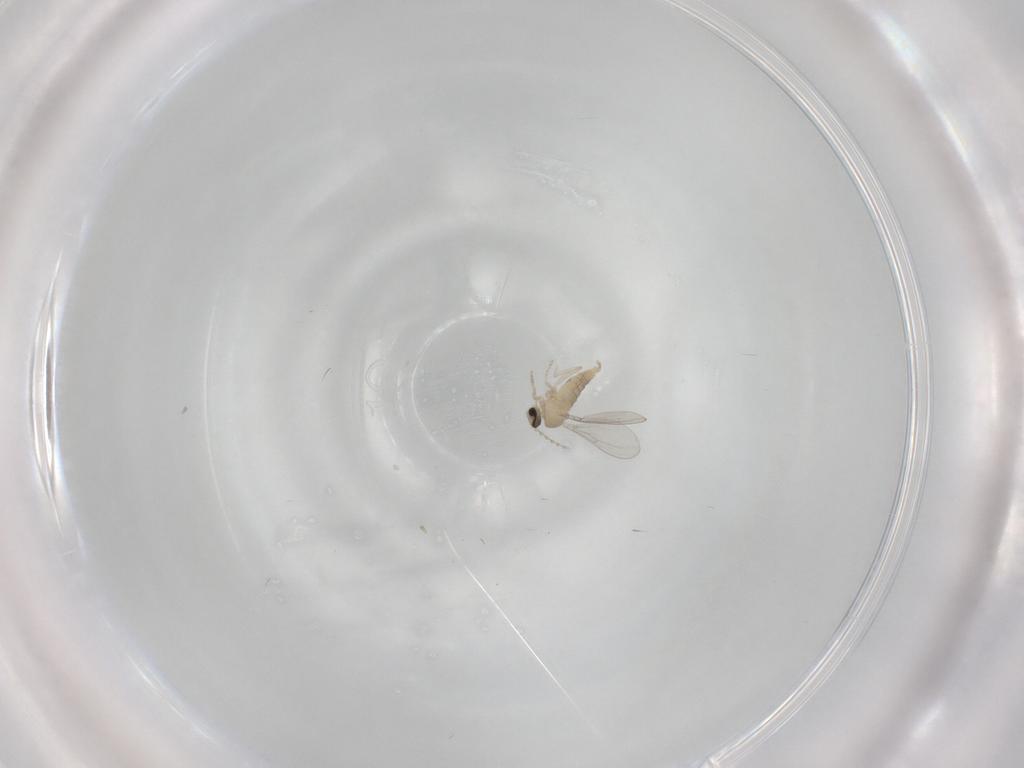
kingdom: Animalia
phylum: Arthropoda
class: Insecta
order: Diptera
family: Cecidomyiidae
